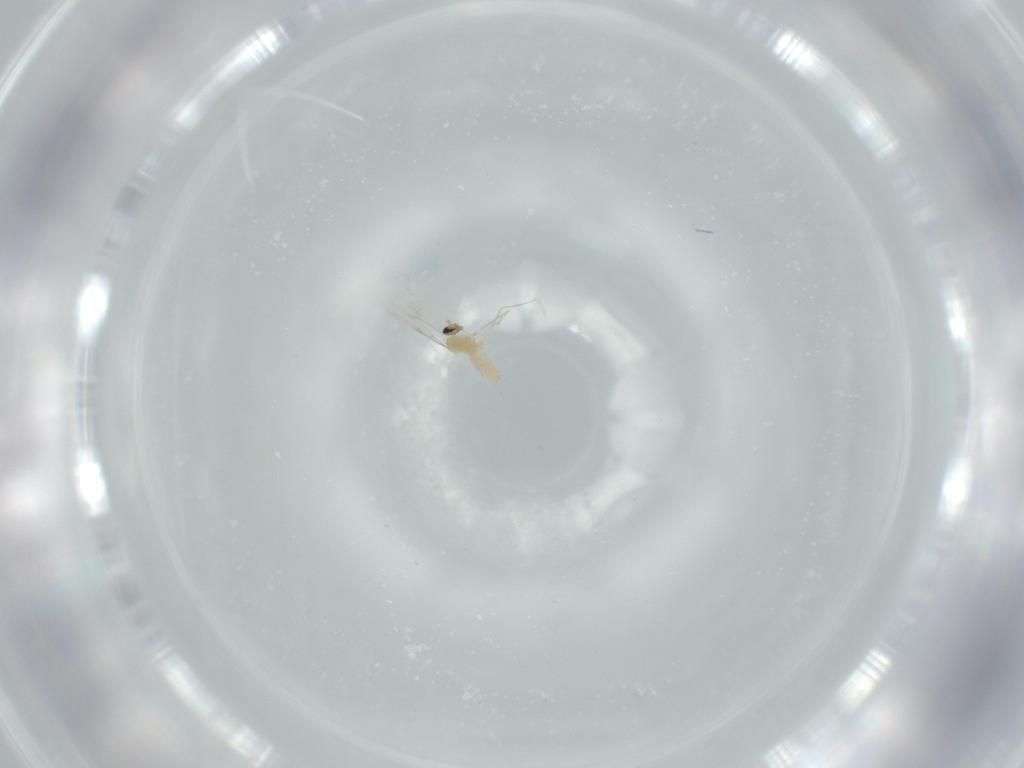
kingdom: Animalia
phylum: Arthropoda
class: Insecta
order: Diptera
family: Cecidomyiidae
